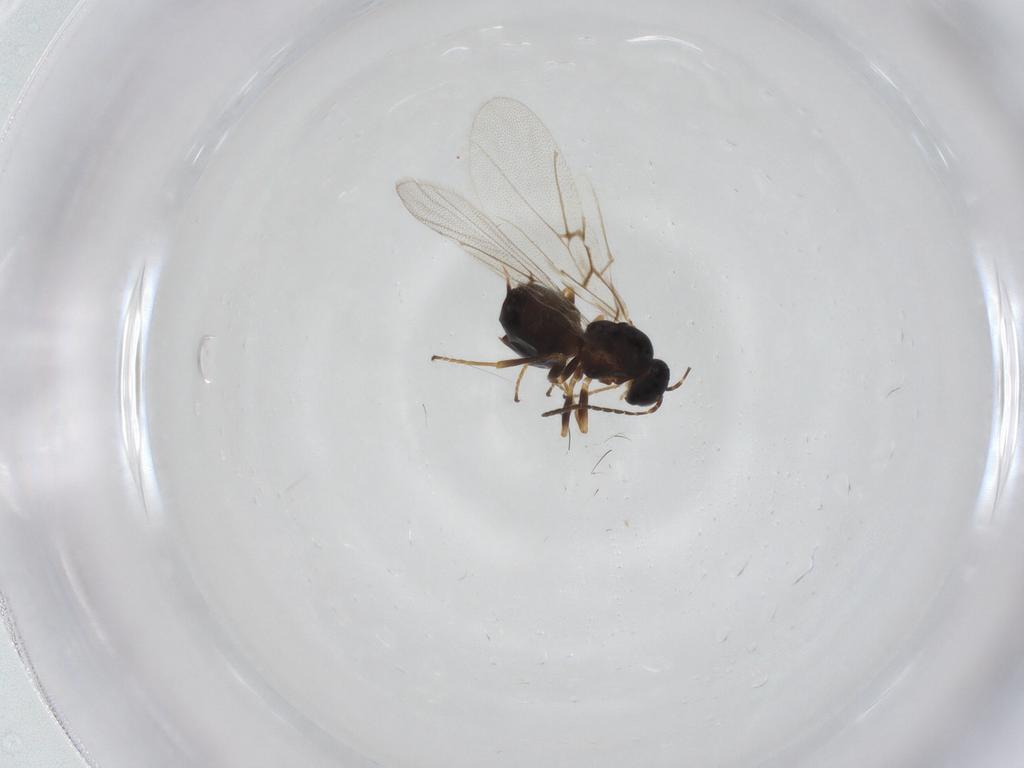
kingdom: Animalia
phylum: Arthropoda
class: Insecta
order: Hymenoptera
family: Cynipidae
